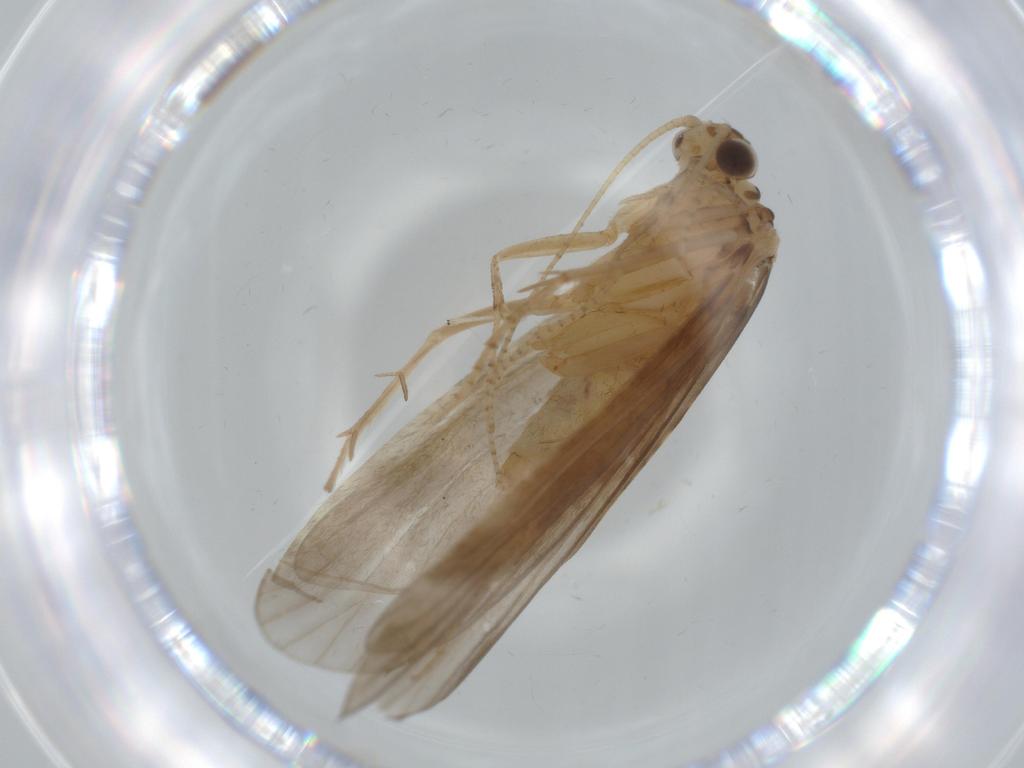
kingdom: Animalia
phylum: Arthropoda
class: Insecta
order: Trichoptera
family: Ecnomidae
